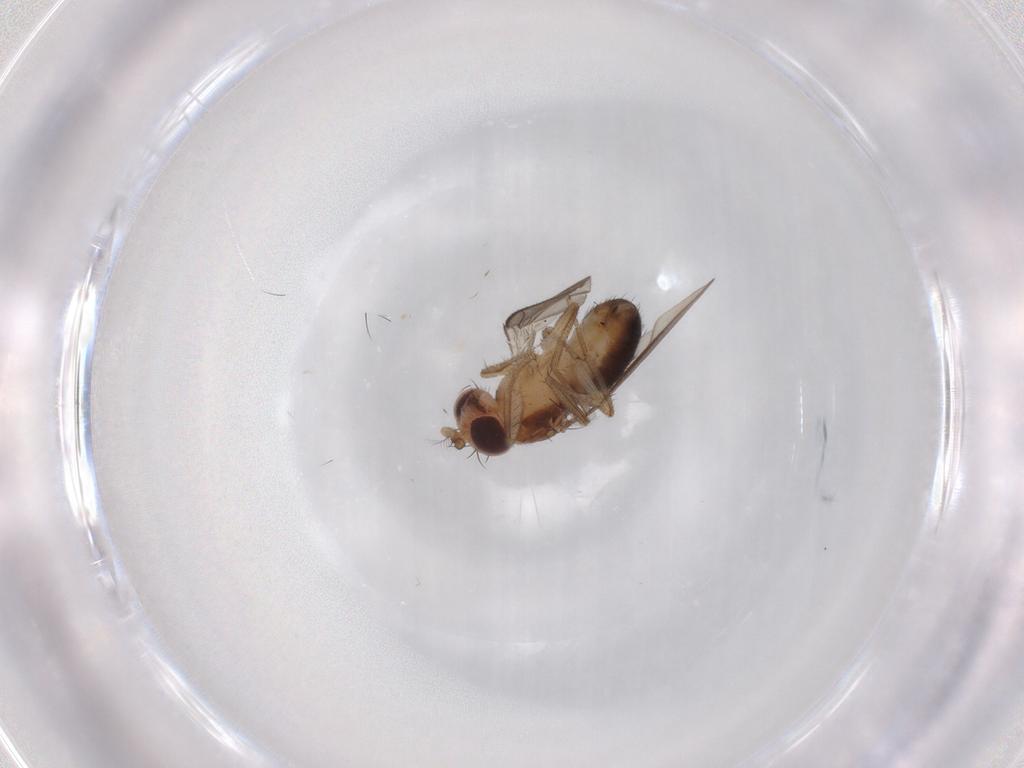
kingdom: Animalia
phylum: Arthropoda
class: Insecta
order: Diptera
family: Drosophilidae
